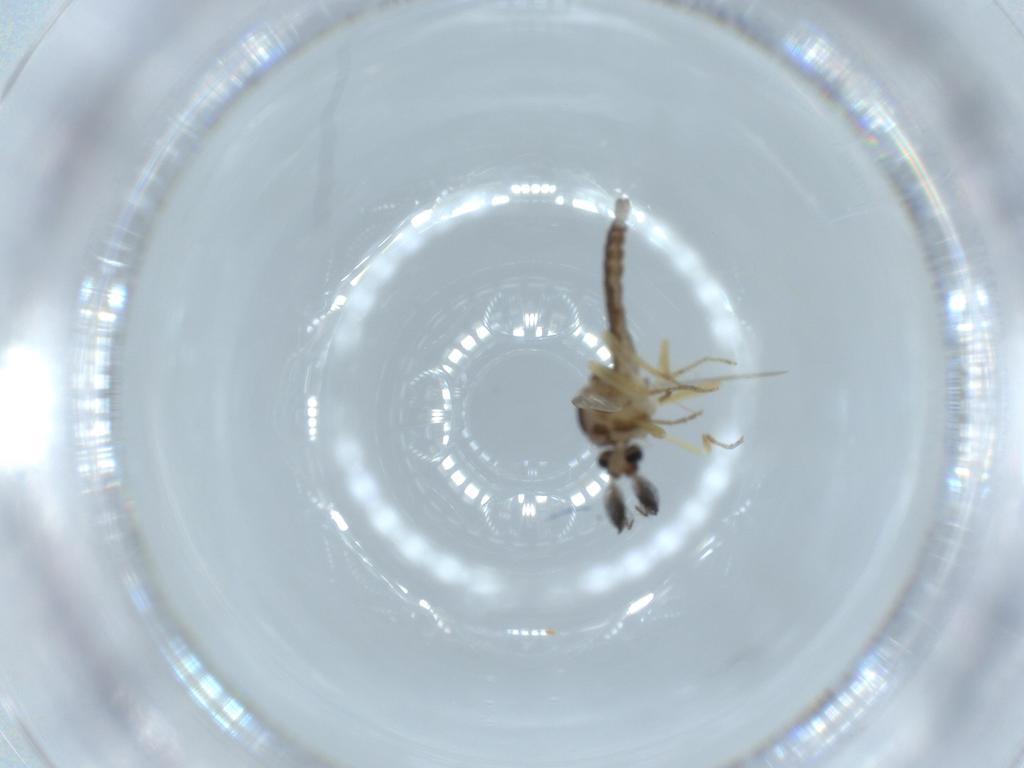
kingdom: Animalia
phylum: Arthropoda
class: Insecta
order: Diptera
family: Ceratopogonidae
